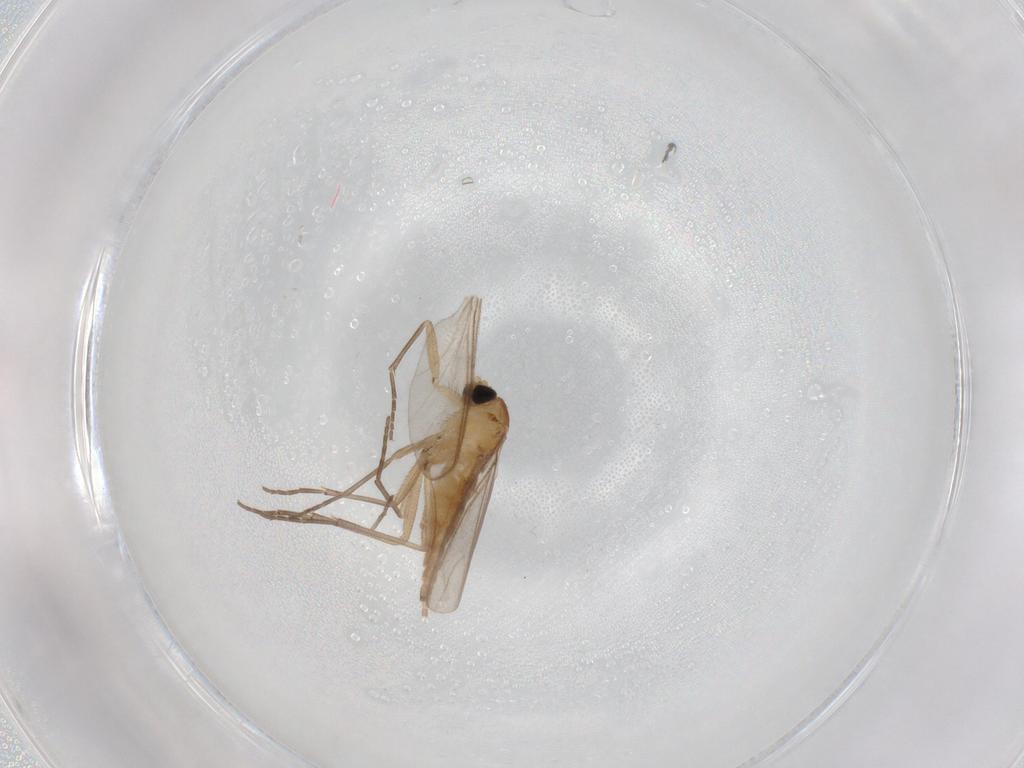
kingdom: Animalia
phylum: Arthropoda
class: Insecta
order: Diptera
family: Sciaridae
